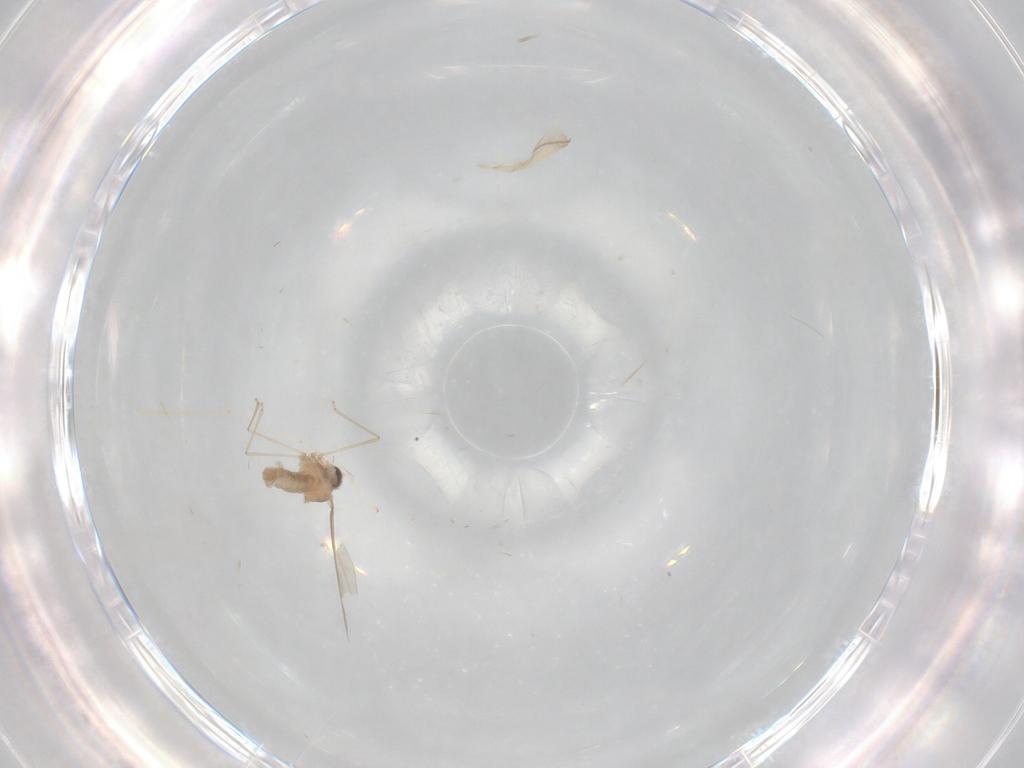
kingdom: Animalia
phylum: Arthropoda
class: Insecta
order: Diptera
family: Cecidomyiidae
